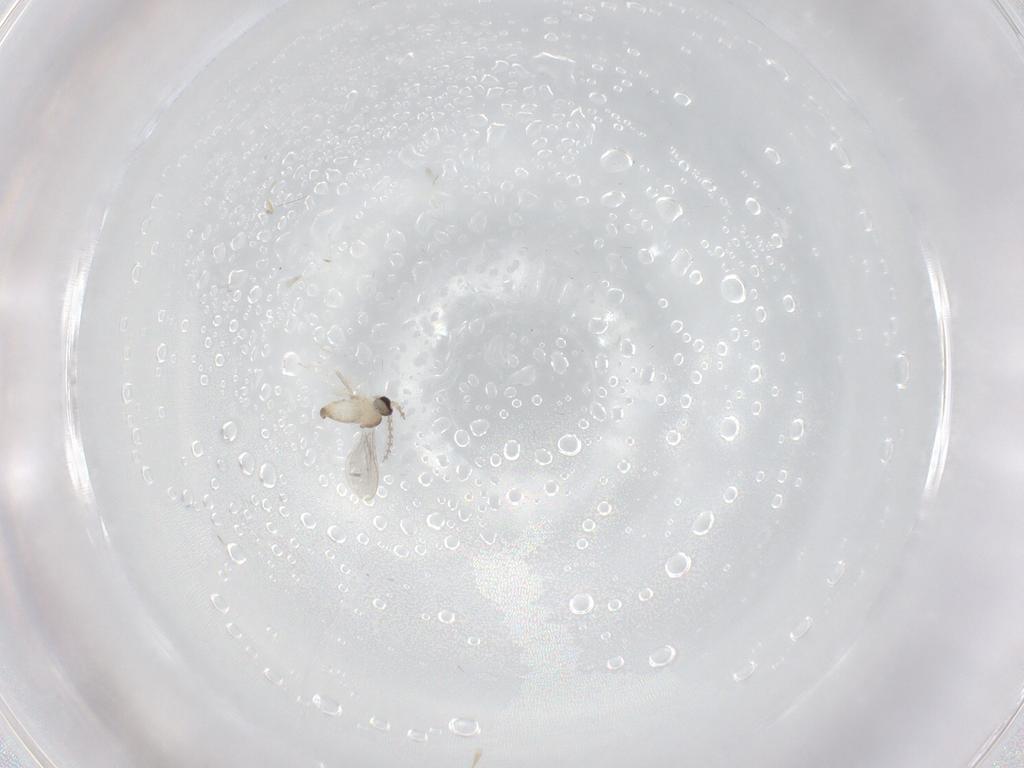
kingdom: Animalia
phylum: Arthropoda
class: Insecta
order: Diptera
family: Cecidomyiidae
